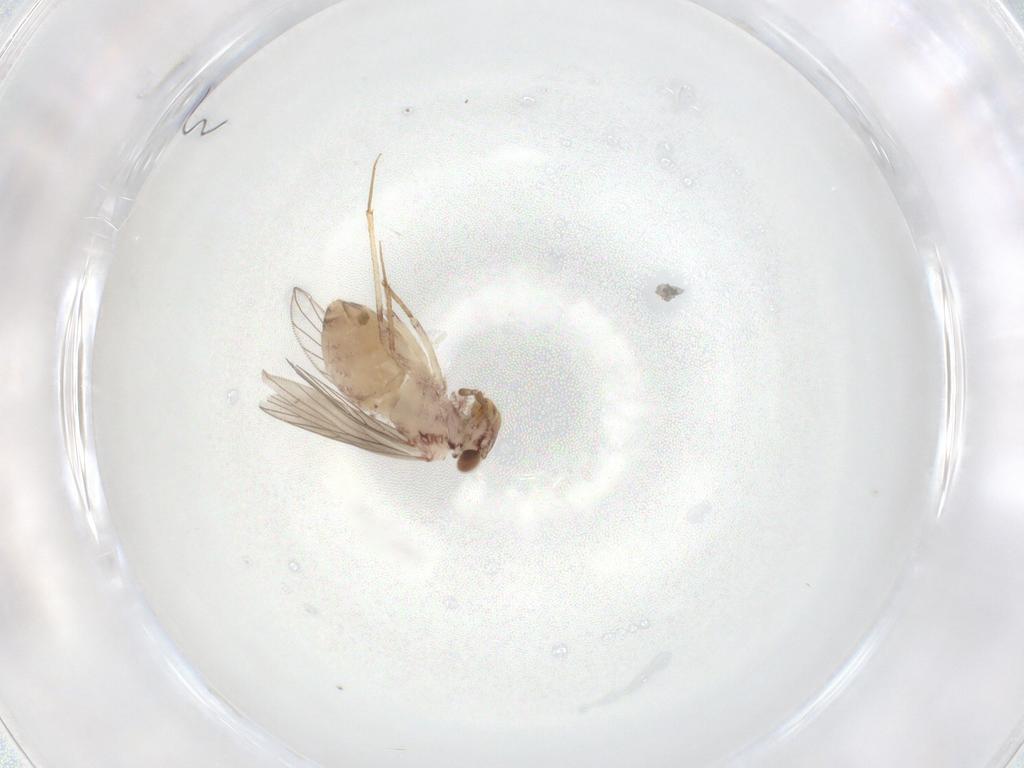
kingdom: Animalia
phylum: Arthropoda
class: Insecta
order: Psocodea
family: Lepidopsocidae
